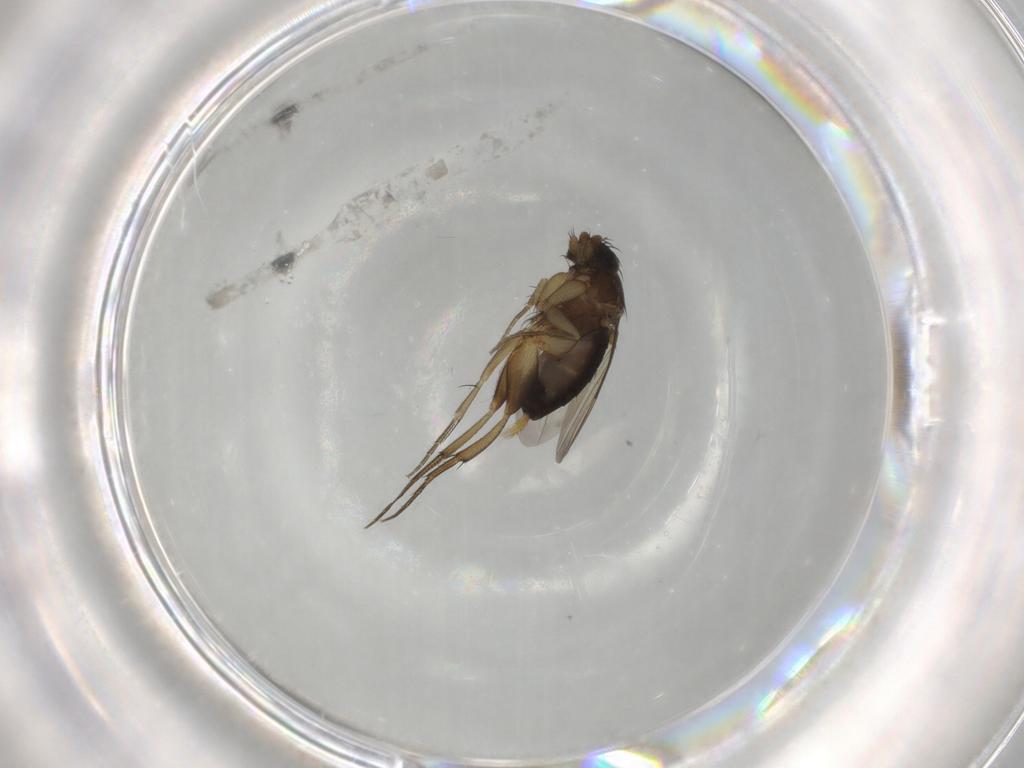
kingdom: Animalia
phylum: Arthropoda
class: Insecta
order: Diptera
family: Phoridae
